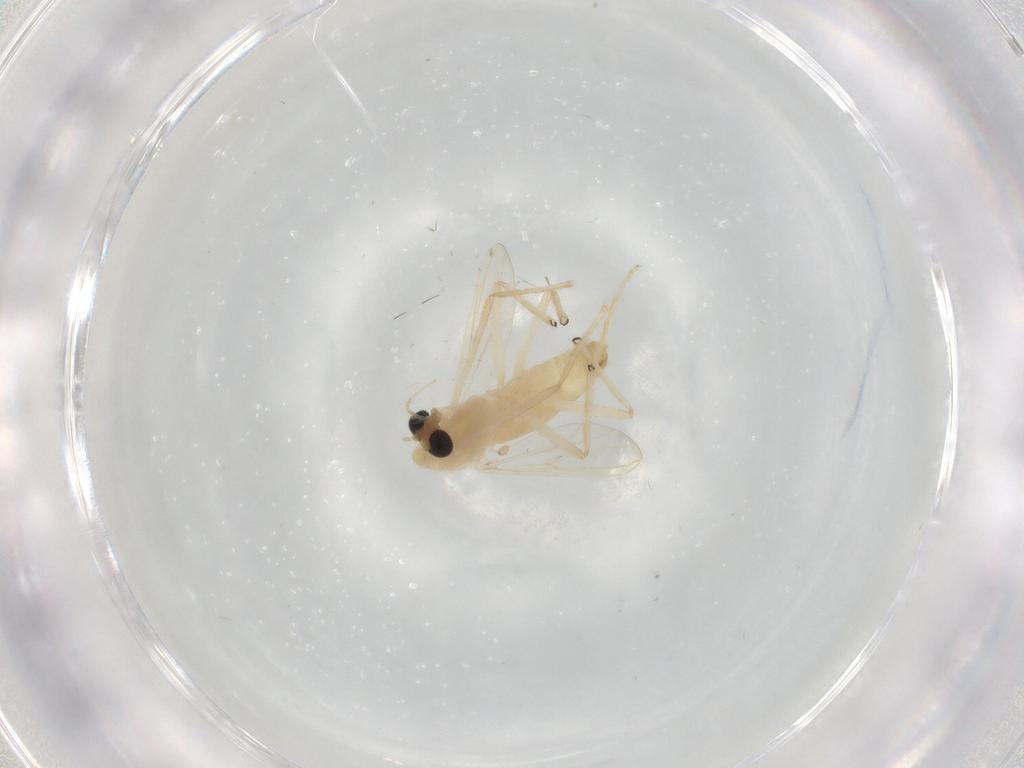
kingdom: Animalia
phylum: Arthropoda
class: Insecta
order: Diptera
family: Chironomidae
